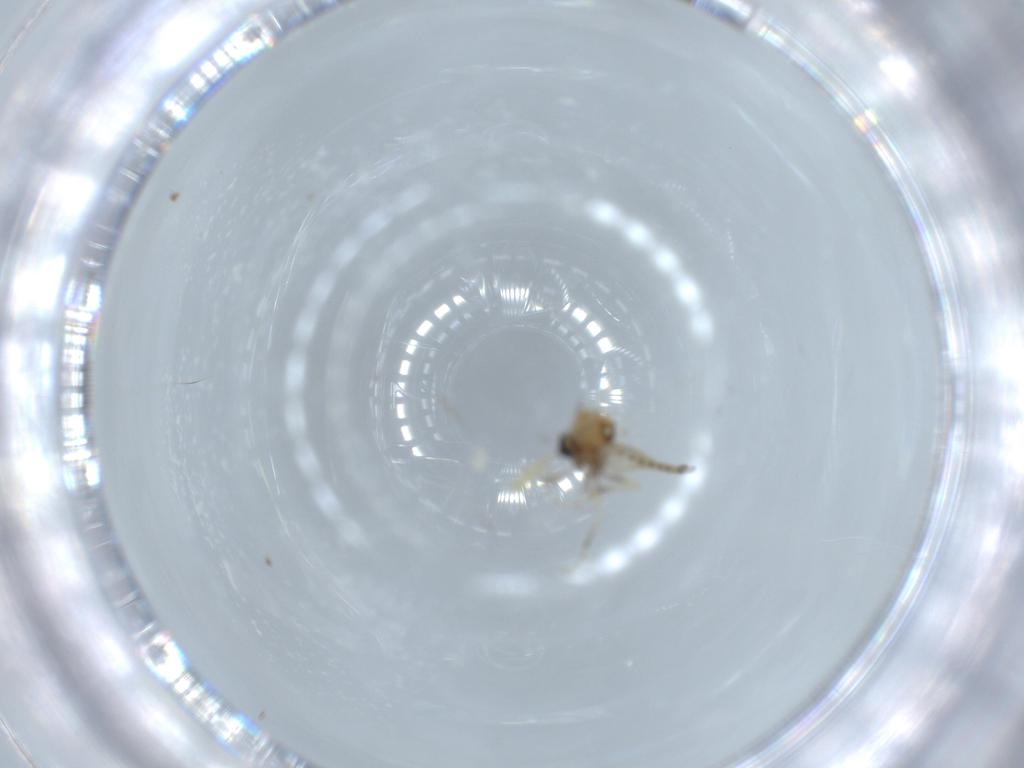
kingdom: Animalia
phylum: Arthropoda
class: Insecta
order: Diptera
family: Ceratopogonidae
